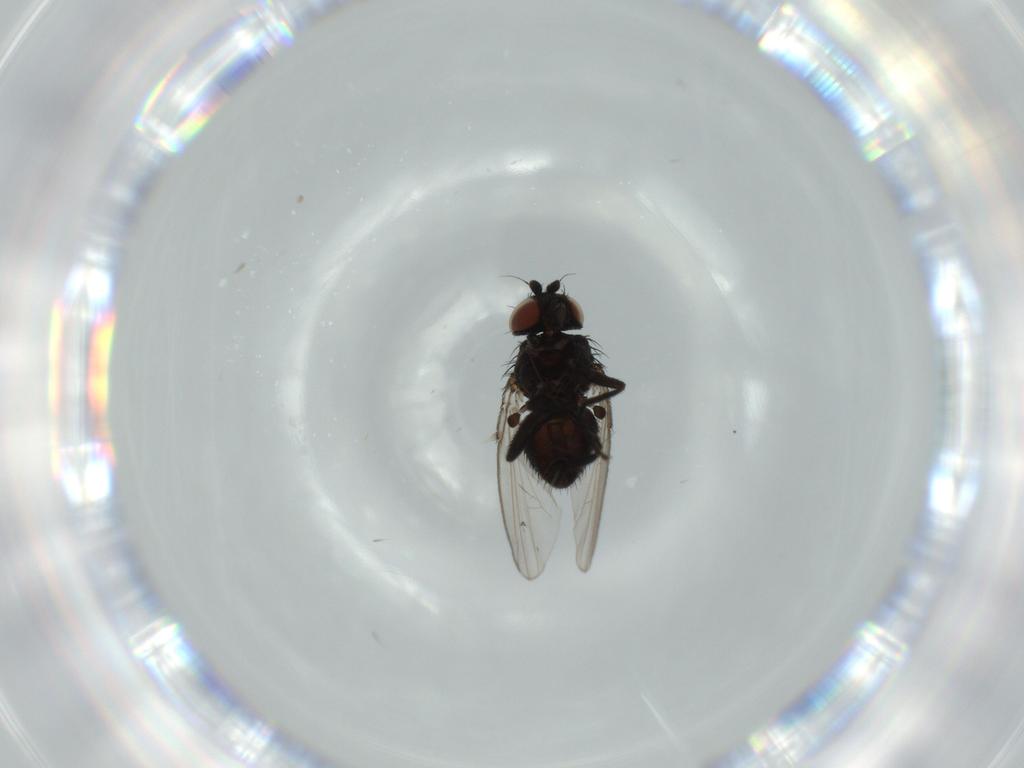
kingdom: Animalia
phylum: Arthropoda
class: Insecta
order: Diptera
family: Milichiidae
